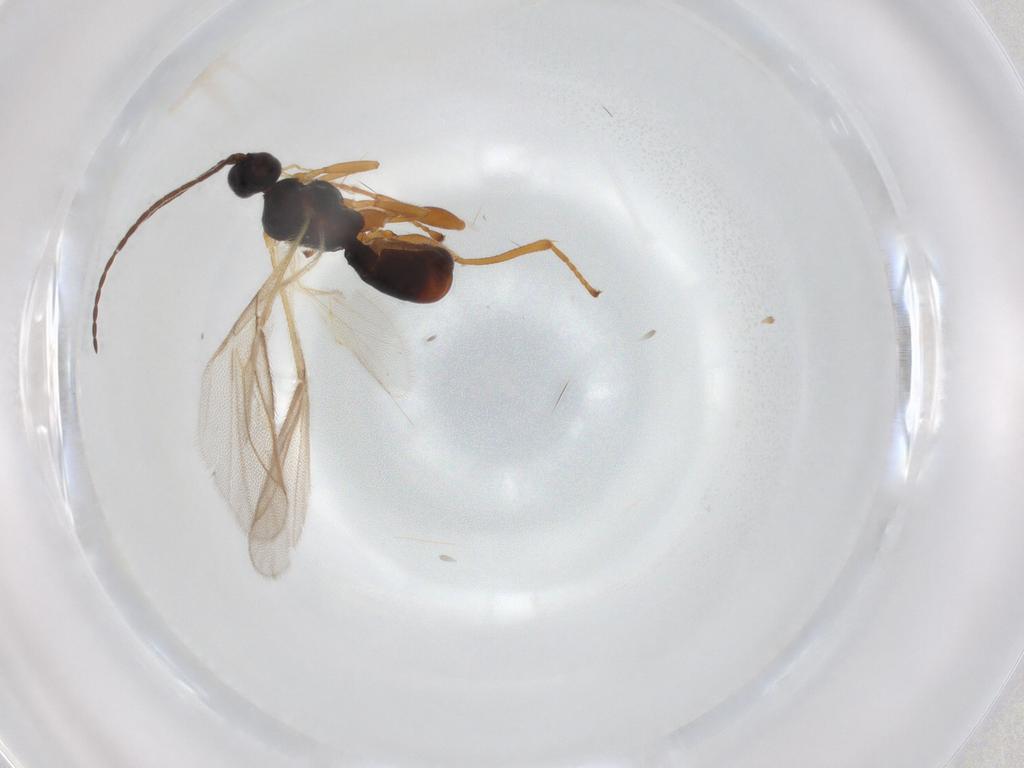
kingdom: Animalia
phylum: Arthropoda
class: Insecta
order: Hymenoptera
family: Braconidae
